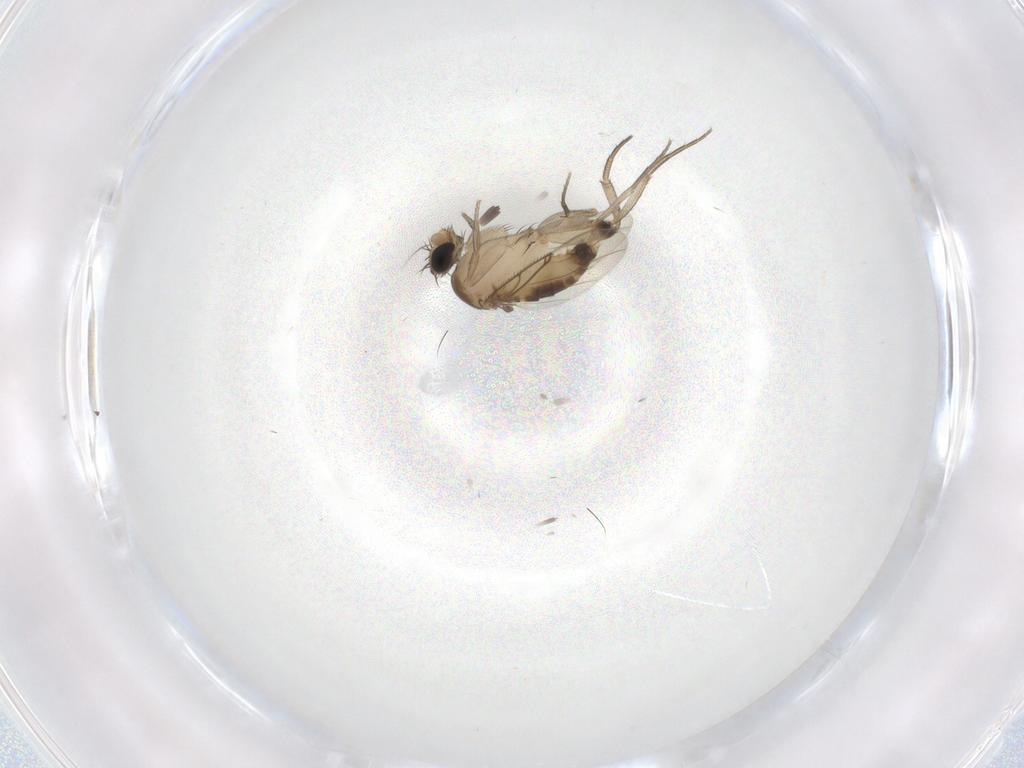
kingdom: Animalia
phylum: Arthropoda
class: Insecta
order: Diptera
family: Phoridae
